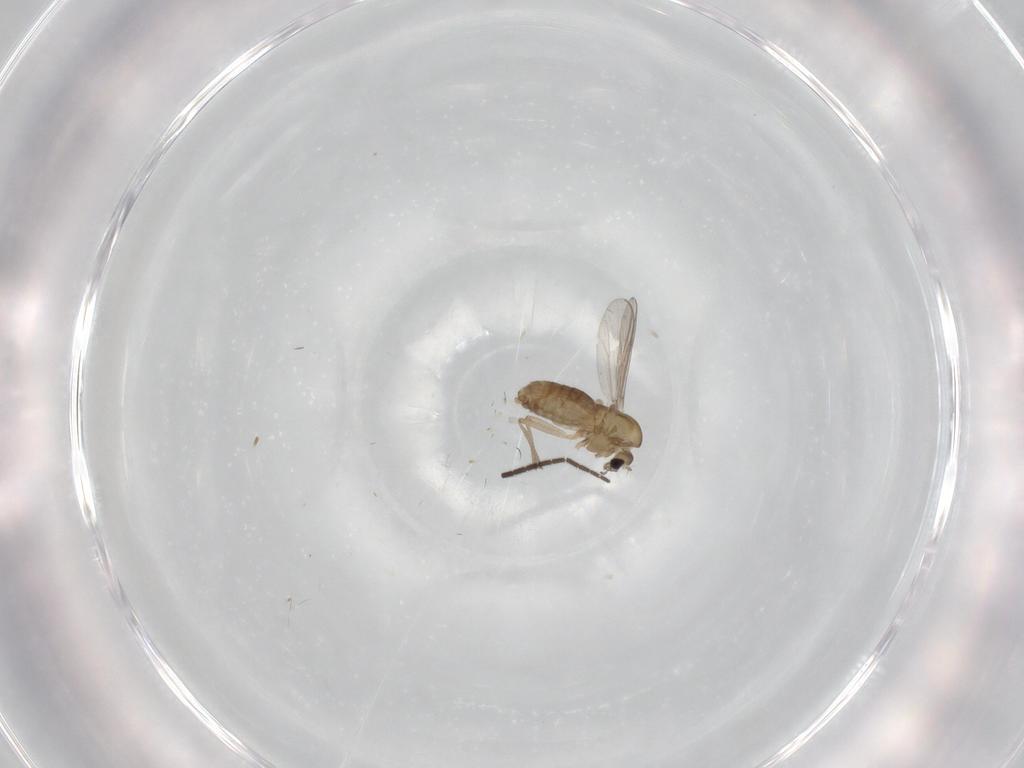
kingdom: Animalia
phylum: Arthropoda
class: Insecta
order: Diptera
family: Chironomidae
